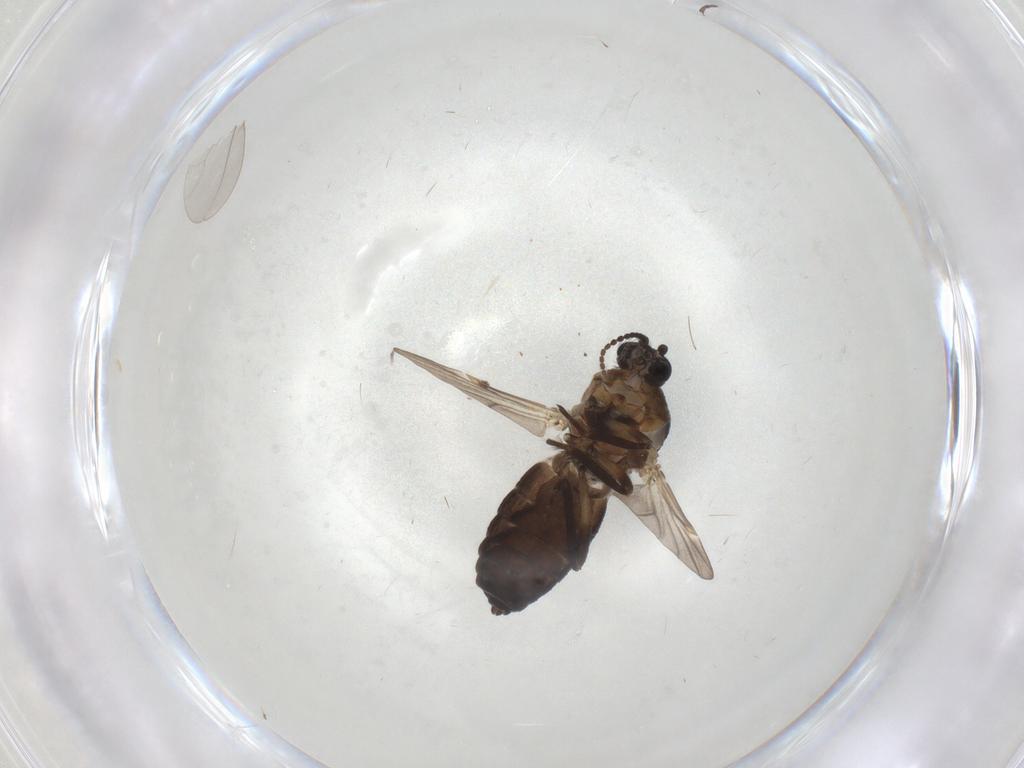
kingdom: Animalia
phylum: Arthropoda
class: Insecta
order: Diptera
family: Ceratopogonidae
